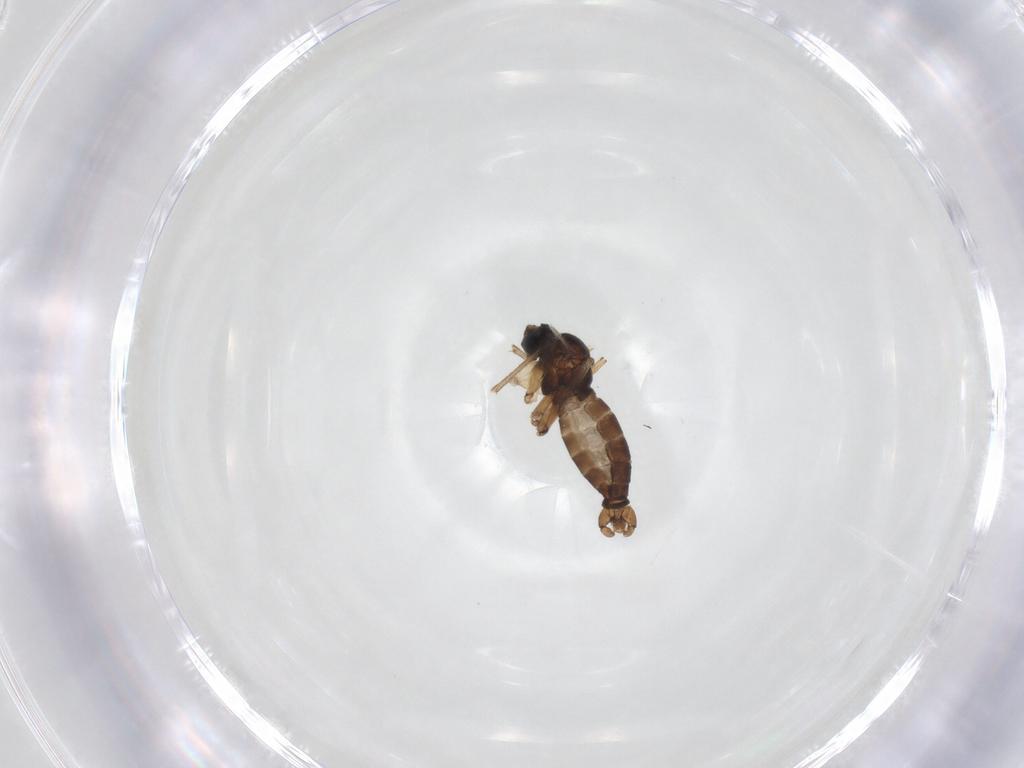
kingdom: Animalia
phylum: Arthropoda
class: Insecta
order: Diptera
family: Sciaridae
